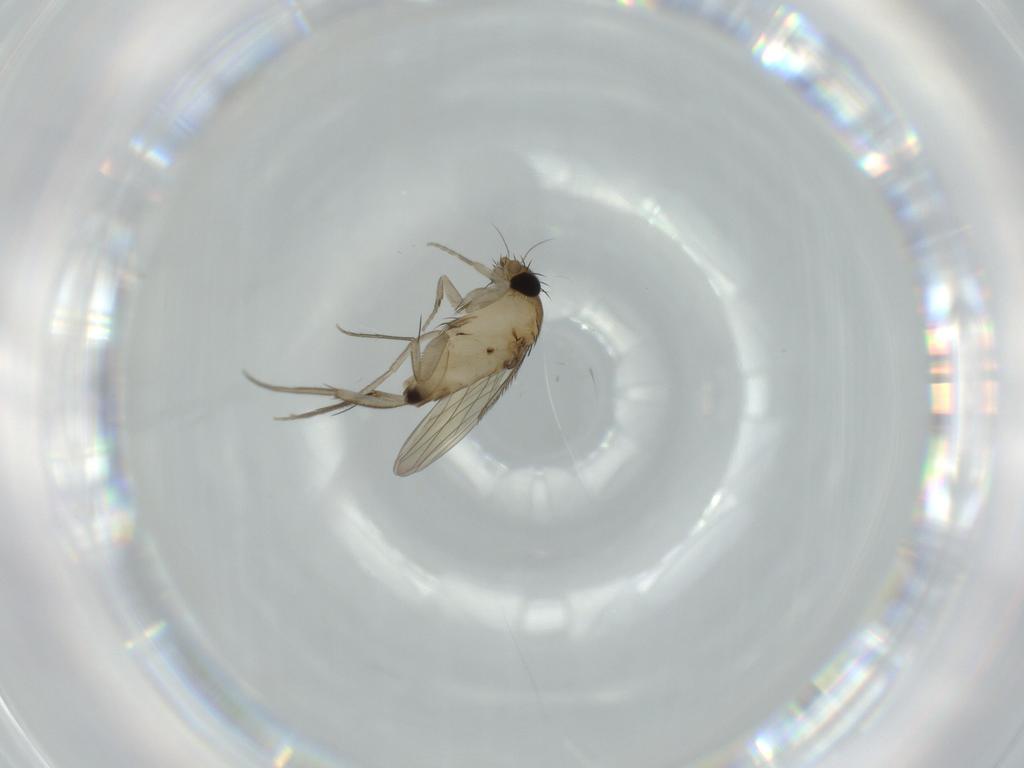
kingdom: Animalia
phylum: Arthropoda
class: Insecta
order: Diptera
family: Phoridae
